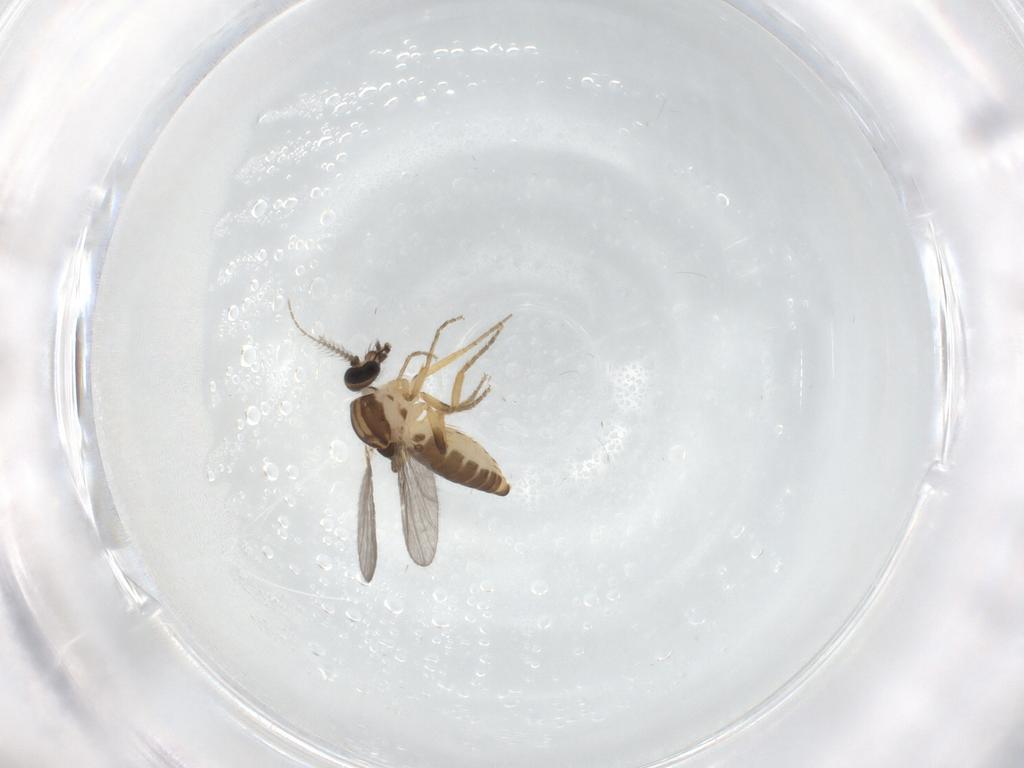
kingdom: Animalia
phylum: Arthropoda
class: Insecta
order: Diptera
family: Ceratopogonidae
